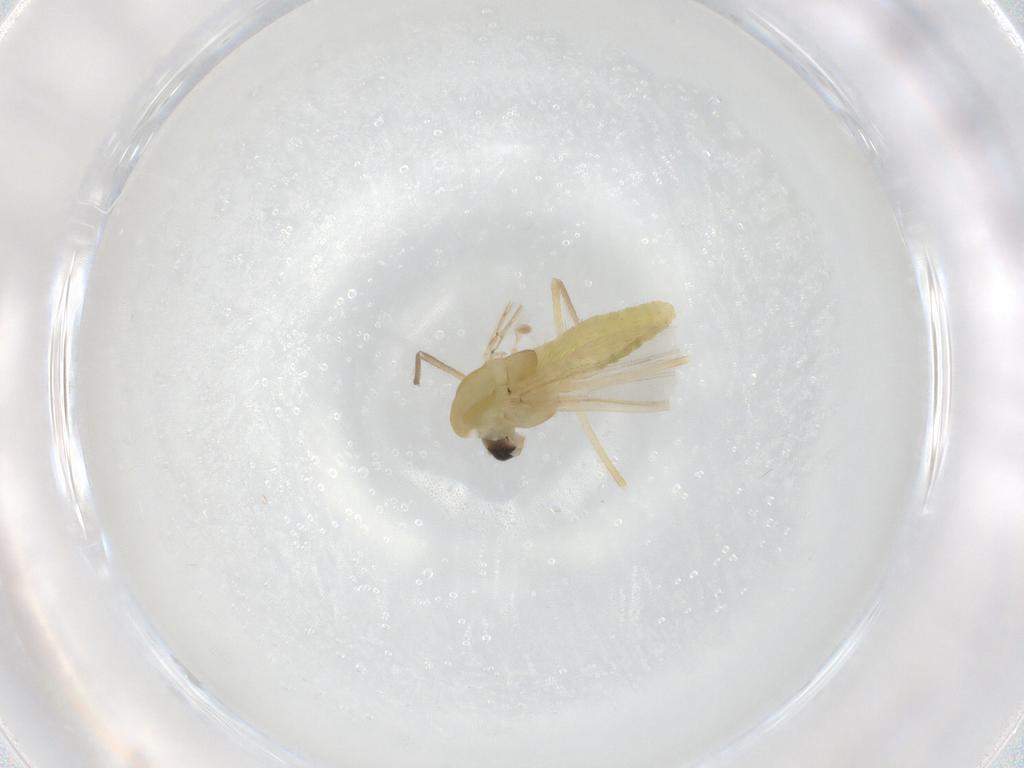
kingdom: Animalia
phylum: Arthropoda
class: Insecta
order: Diptera
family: Chironomidae
